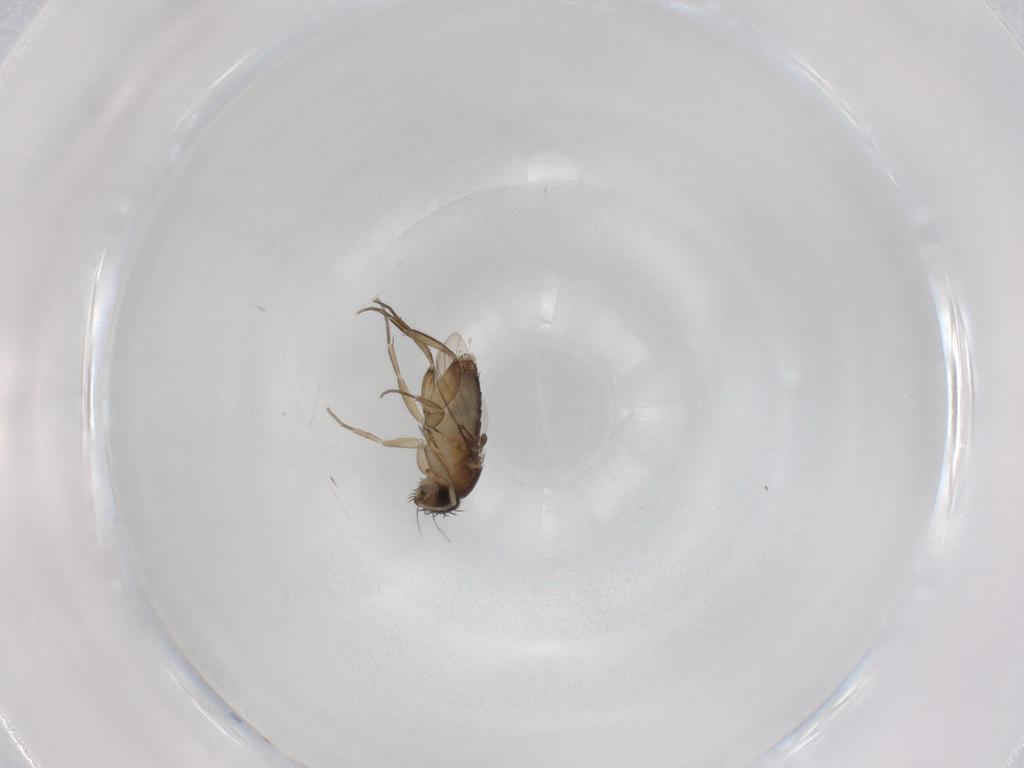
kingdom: Animalia
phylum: Arthropoda
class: Insecta
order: Diptera
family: Phoridae
